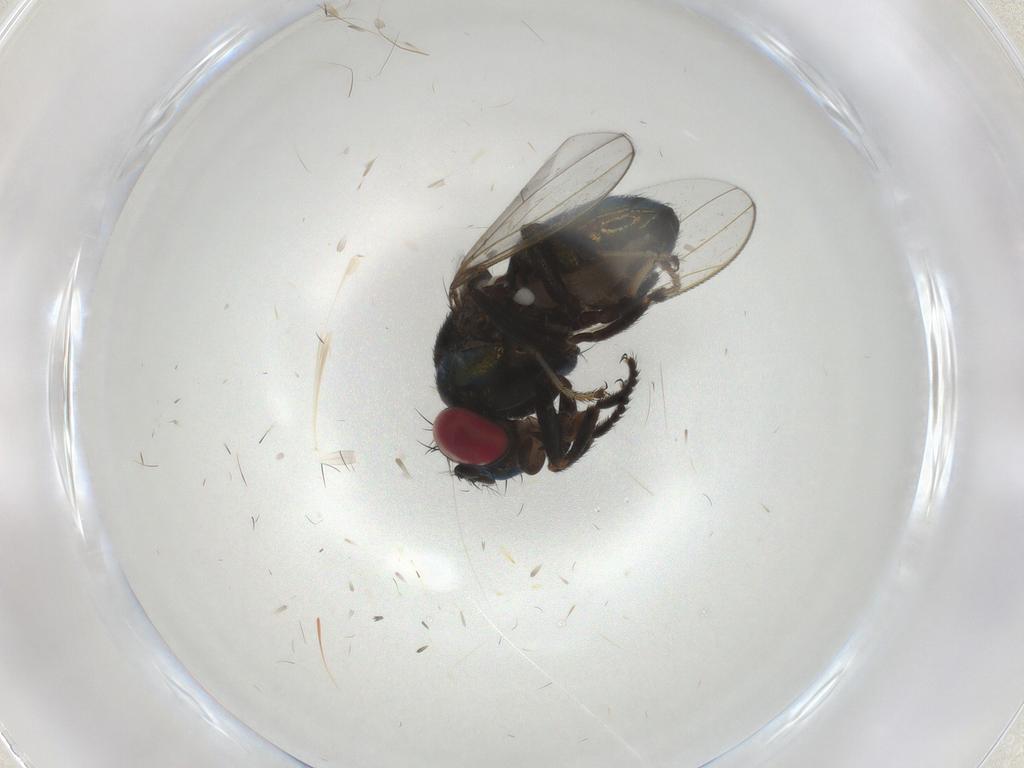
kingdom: Animalia
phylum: Arthropoda
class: Insecta
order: Diptera
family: Ephydridae
